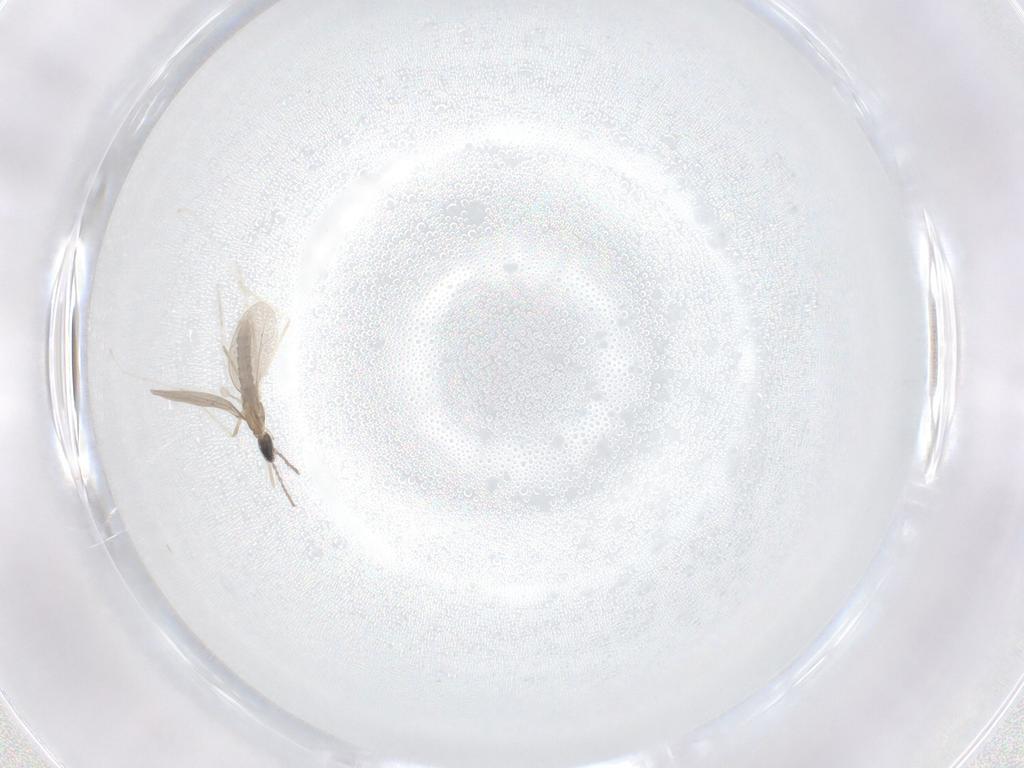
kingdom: Animalia
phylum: Arthropoda
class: Insecta
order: Diptera
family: Cecidomyiidae
